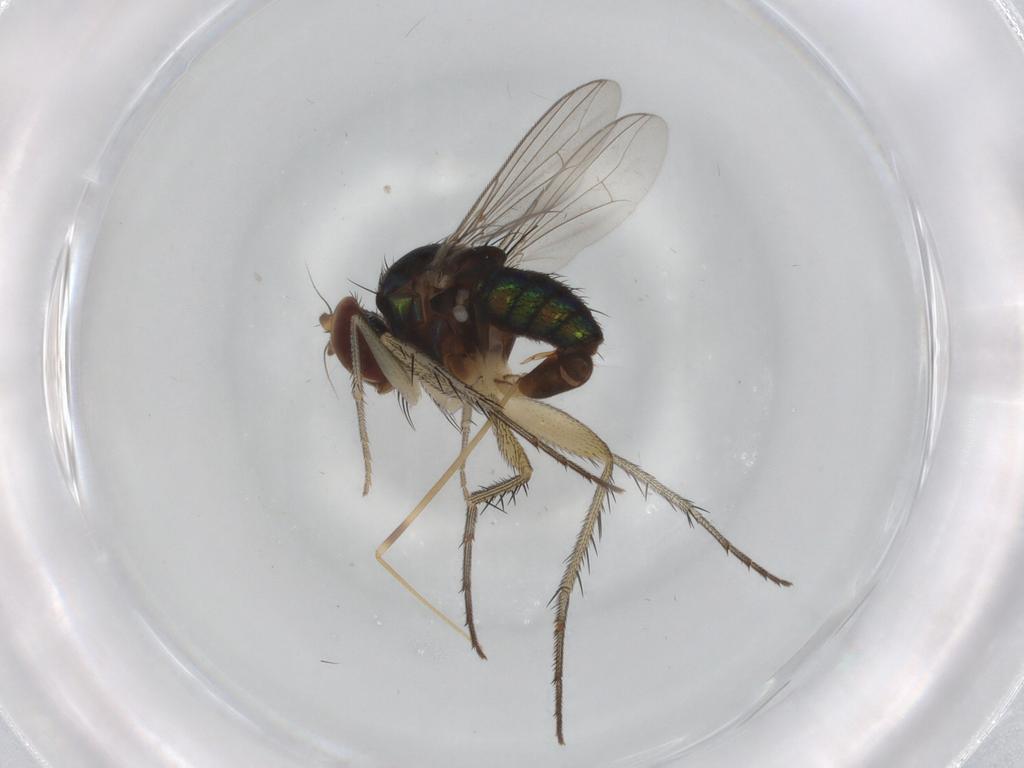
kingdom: Animalia
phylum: Arthropoda
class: Insecta
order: Diptera
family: Dolichopodidae
